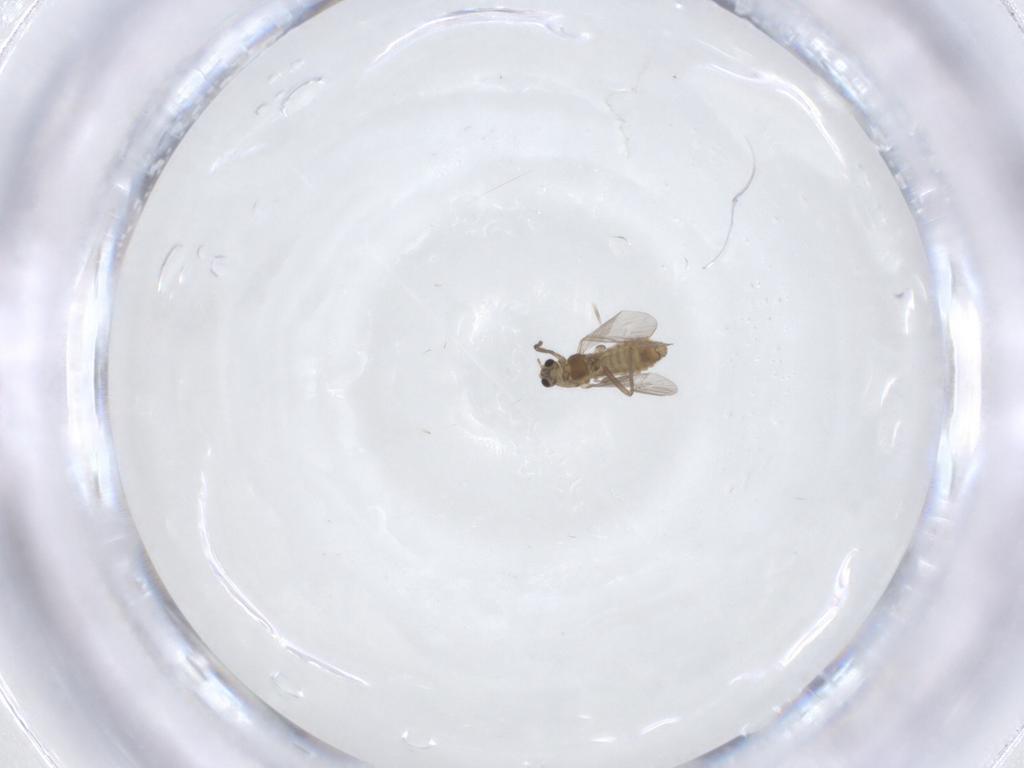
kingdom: Animalia
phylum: Arthropoda
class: Insecta
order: Diptera
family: Chironomidae
